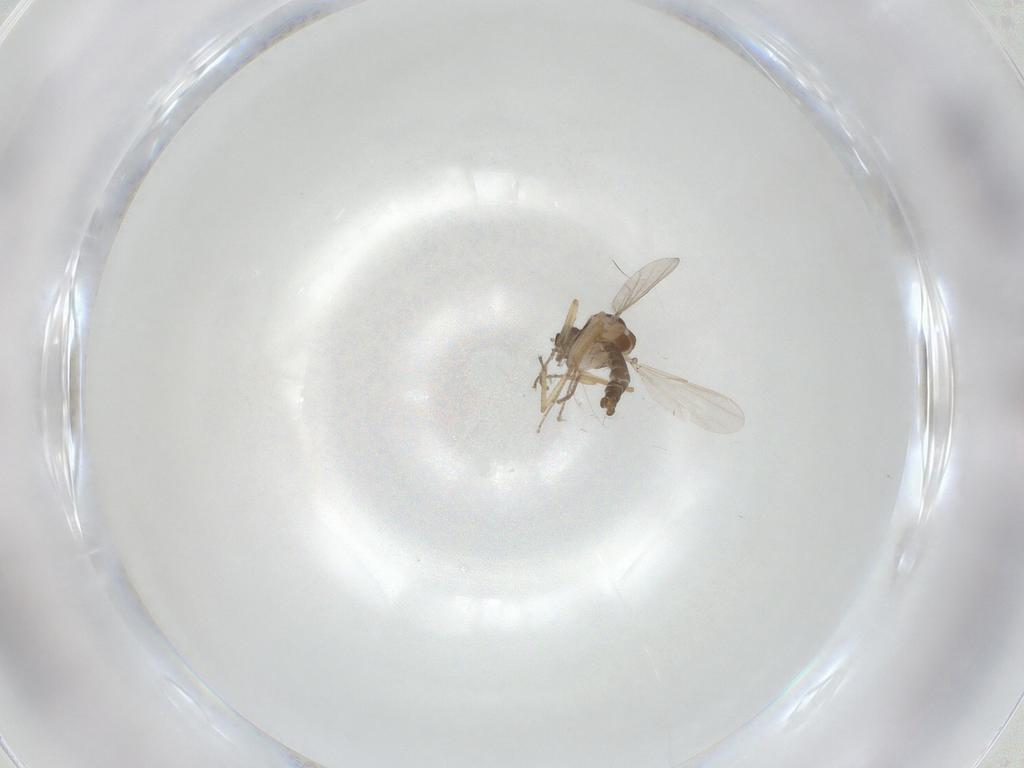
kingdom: Animalia
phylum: Arthropoda
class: Insecta
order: Diptera
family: Ceratopogonidae
